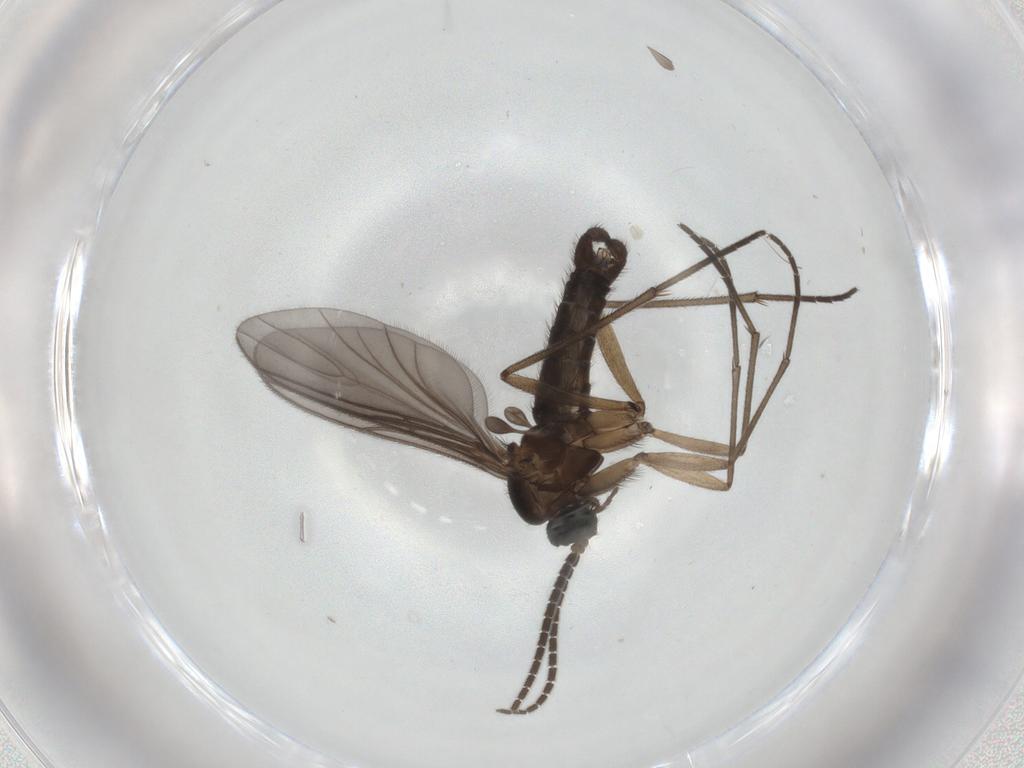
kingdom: Animalia
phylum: Arthropoda
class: Insecta
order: Diptera
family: Sciaridae
